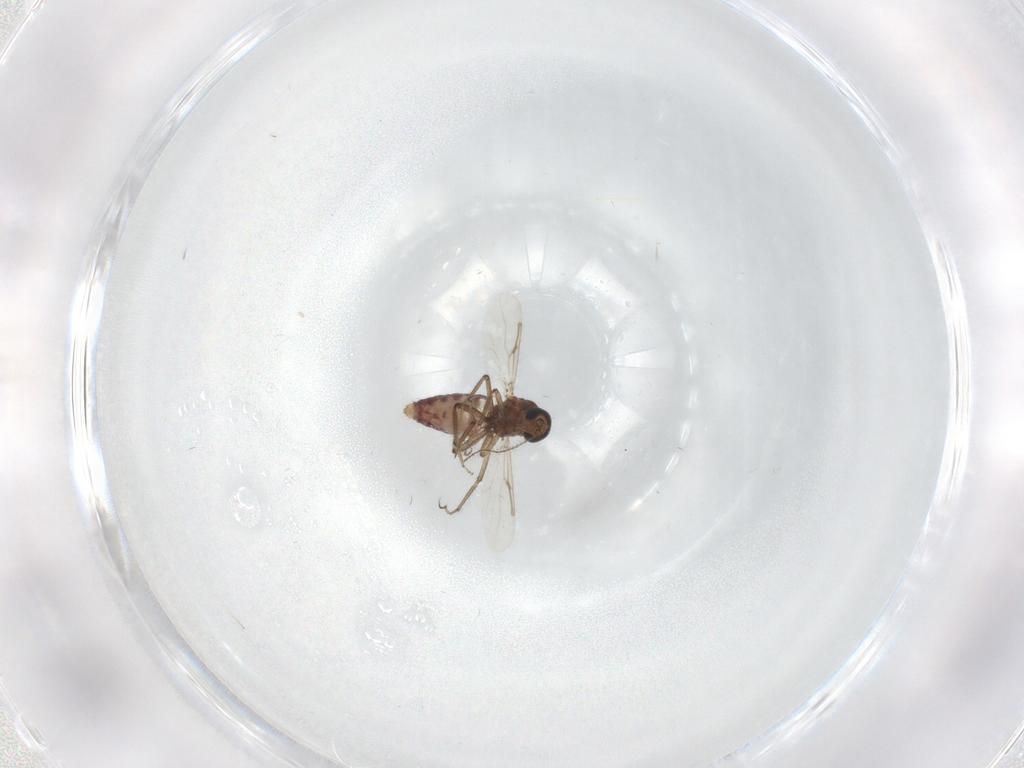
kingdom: Animalia
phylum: Arthropoda
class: Insecta
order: Diptera
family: Ceratopogonidae
